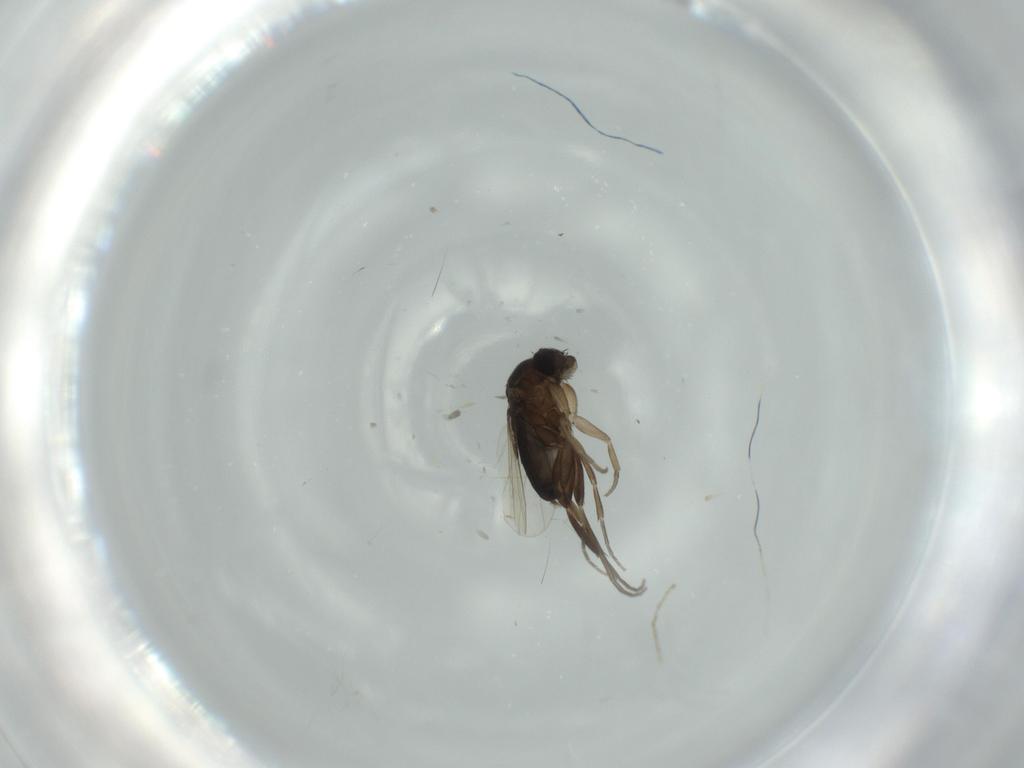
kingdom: Animalia
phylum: Arthropoda
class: Insecta
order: Diptera
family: Phoridae
